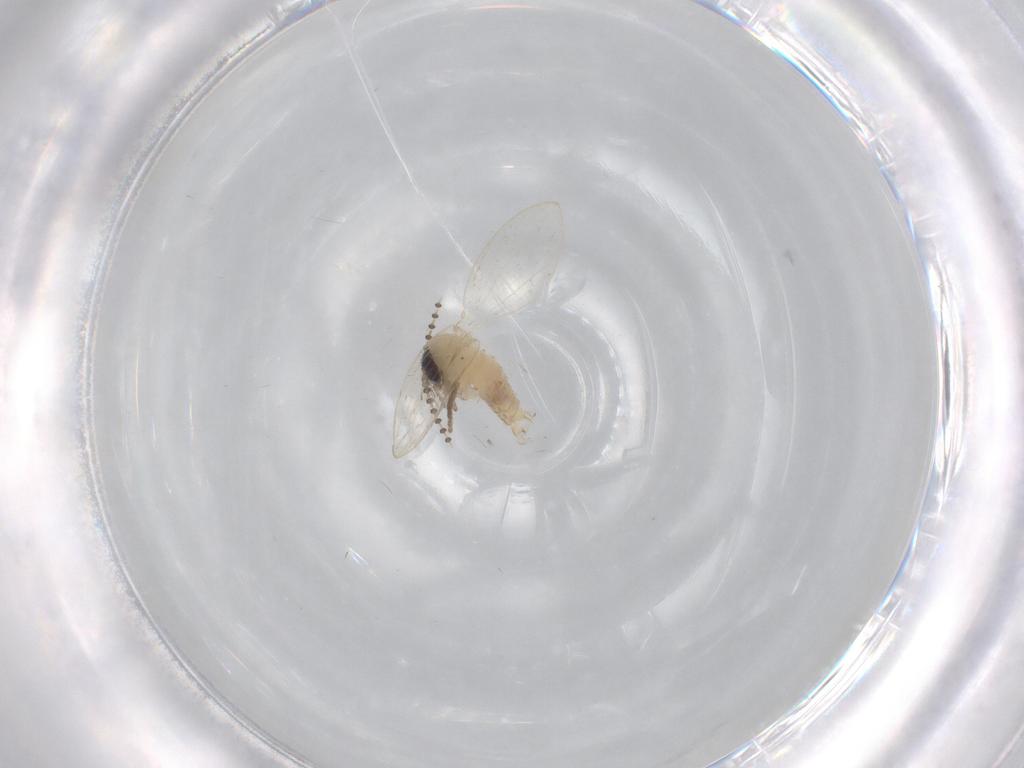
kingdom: Animalia
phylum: Arthropoda
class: Insecta
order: Diptera
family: Psychodidae
